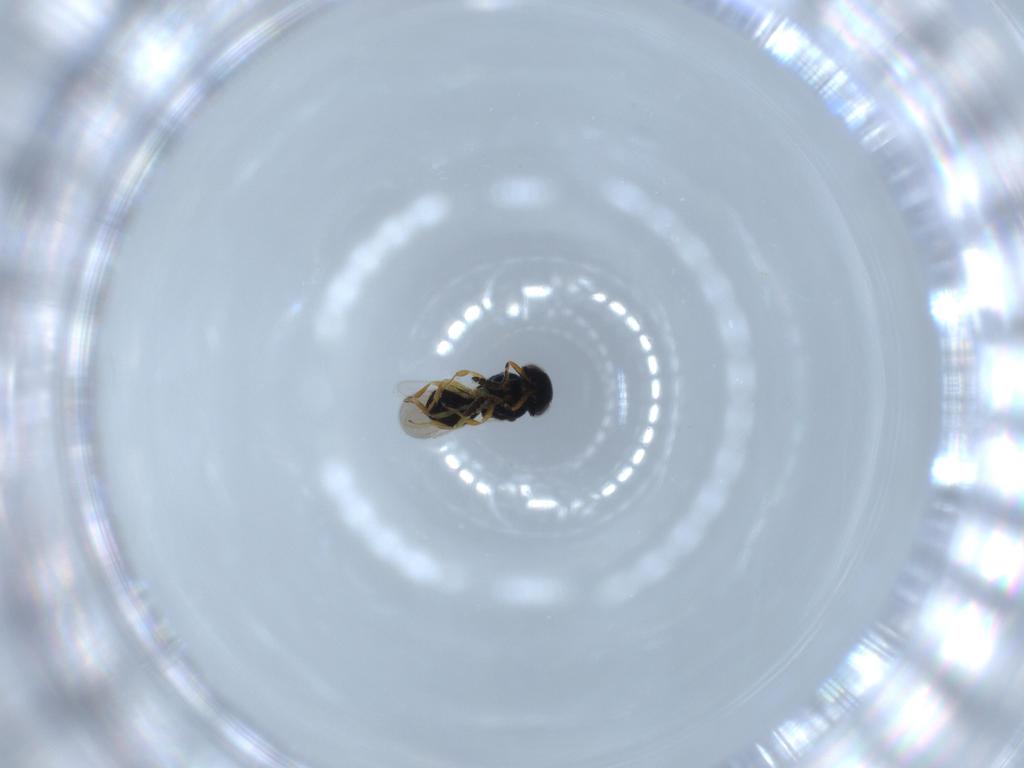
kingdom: Animalia
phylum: Arthropoda
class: Insecta
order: Hymenoptera
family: Scelionidae
